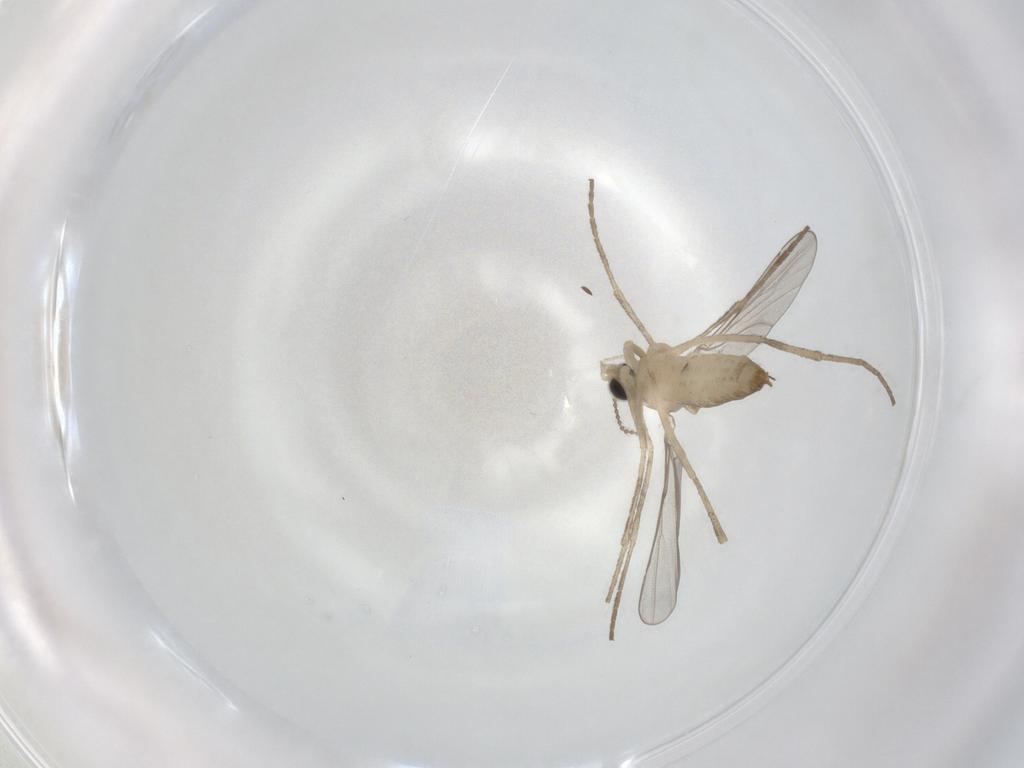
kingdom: Animalia
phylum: Arthropoda
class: Insecta
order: Diptera
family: Cecidomyiidae
